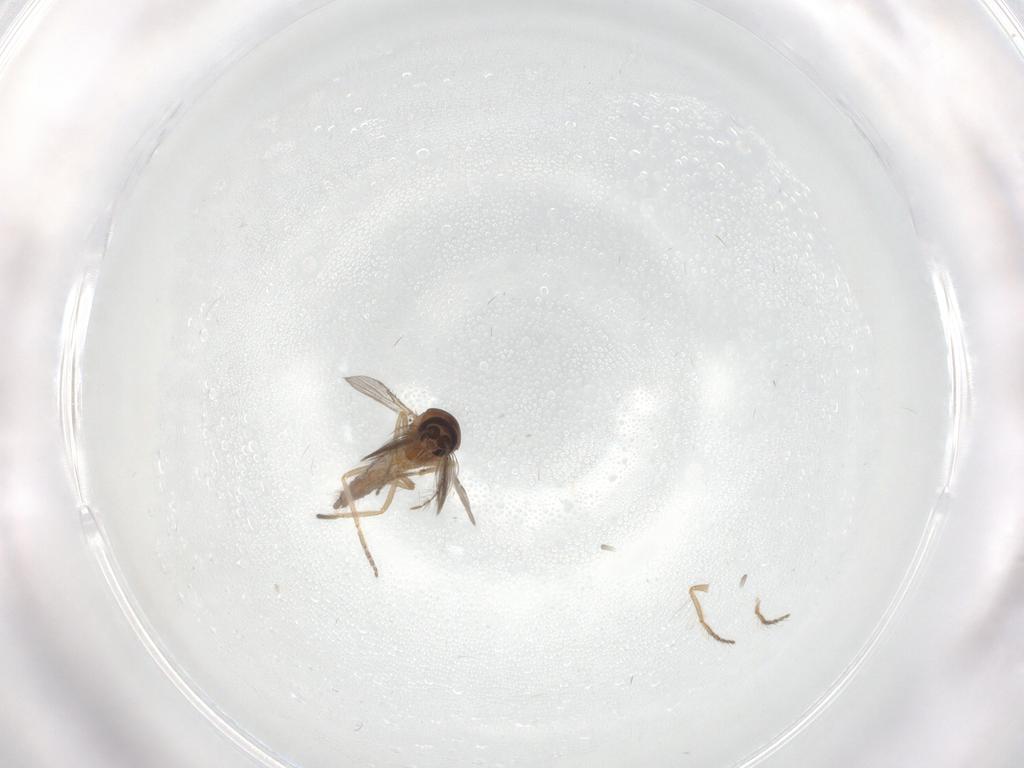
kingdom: Animalia
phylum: Arthropoda
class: Insecta
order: Diptera
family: Ceratopogonidae
